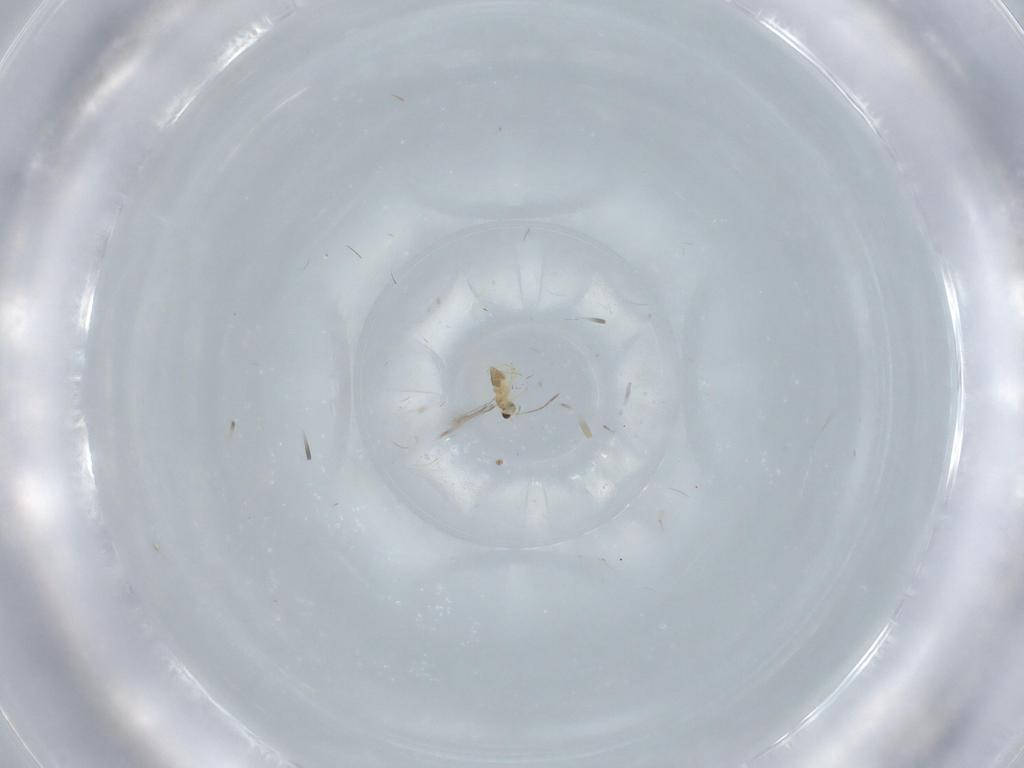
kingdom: Animalia
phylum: Arthropoda
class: Insecta
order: Hymenoptera
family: Mymaridae
